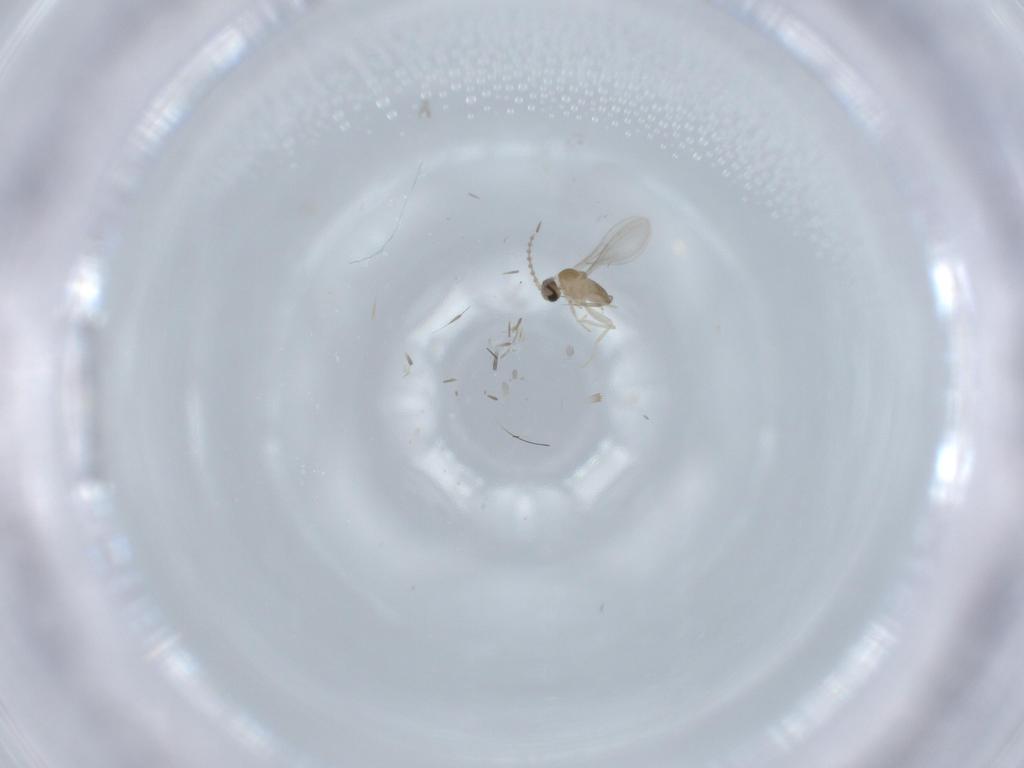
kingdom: Animalia
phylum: Arthropoda
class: Insecta
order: Diptera
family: Cecidomyiidae
